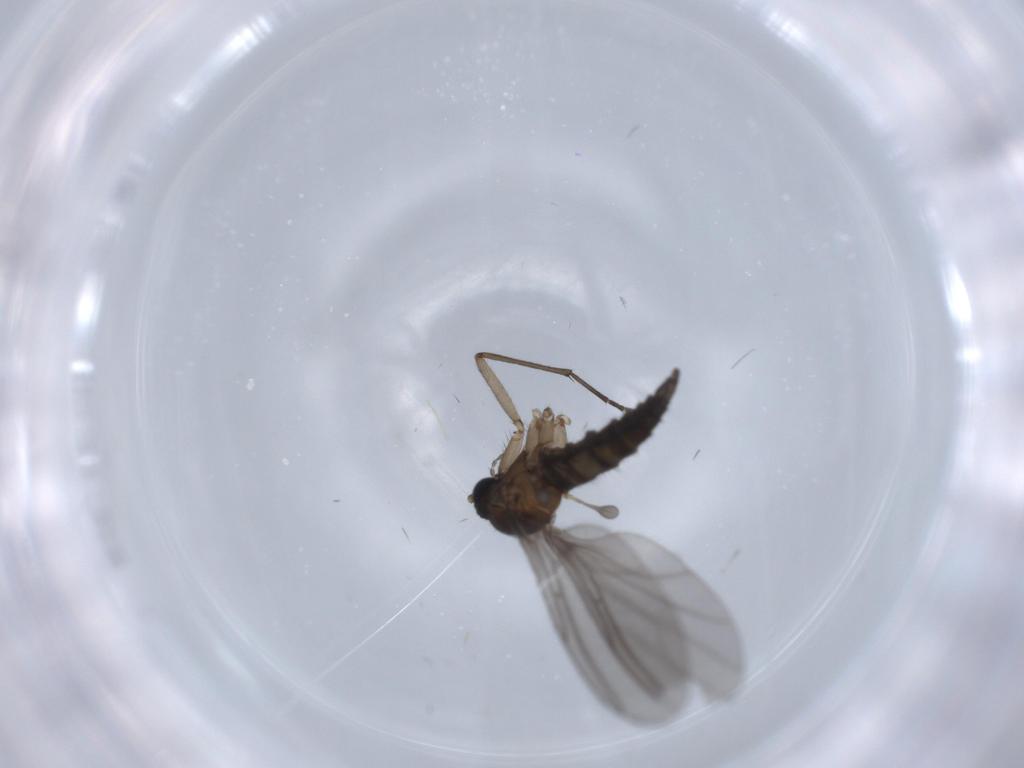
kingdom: Animalia
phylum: Arthropoda
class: Insecta
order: Diptera
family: Sciaridae
